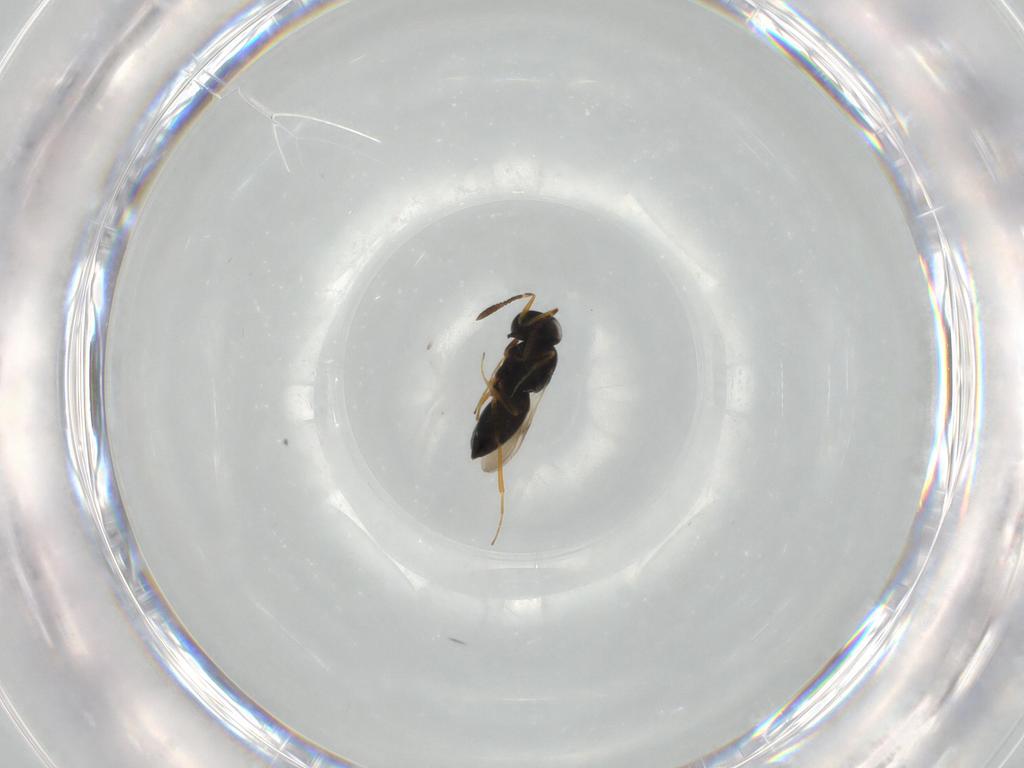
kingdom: Animalia
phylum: Arthropoda
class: Insecta
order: Hymenoptera
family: Scelionidae
